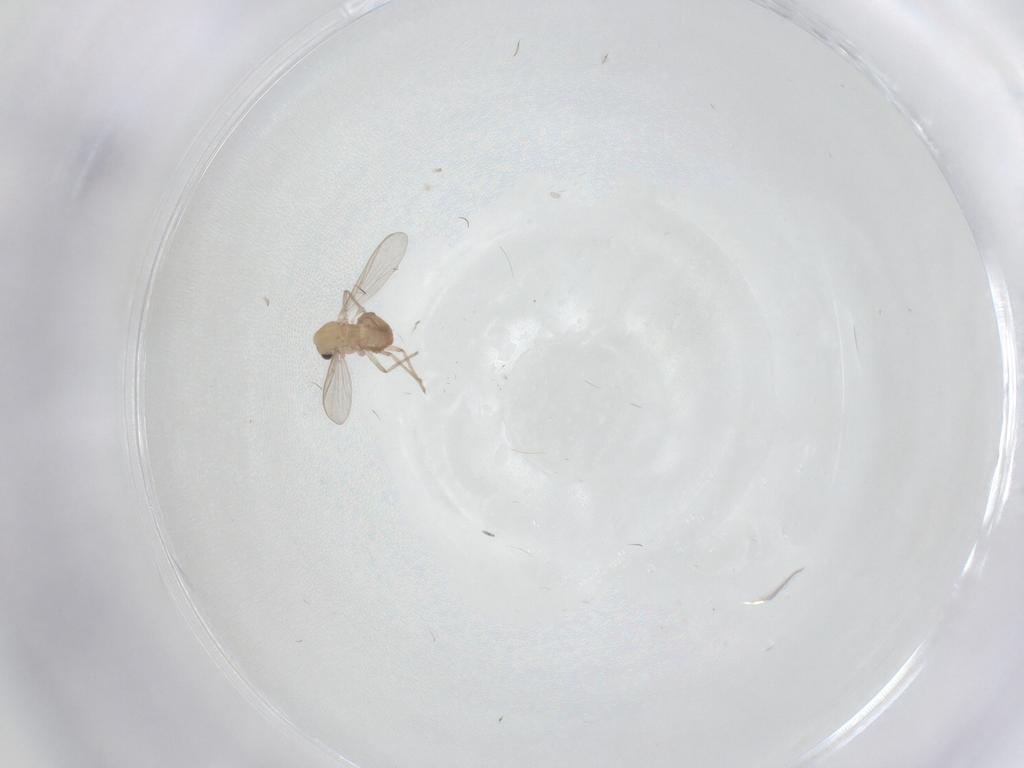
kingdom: Animalia
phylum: Arthropoda
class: Insecta
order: Diptera
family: Chironomidae
